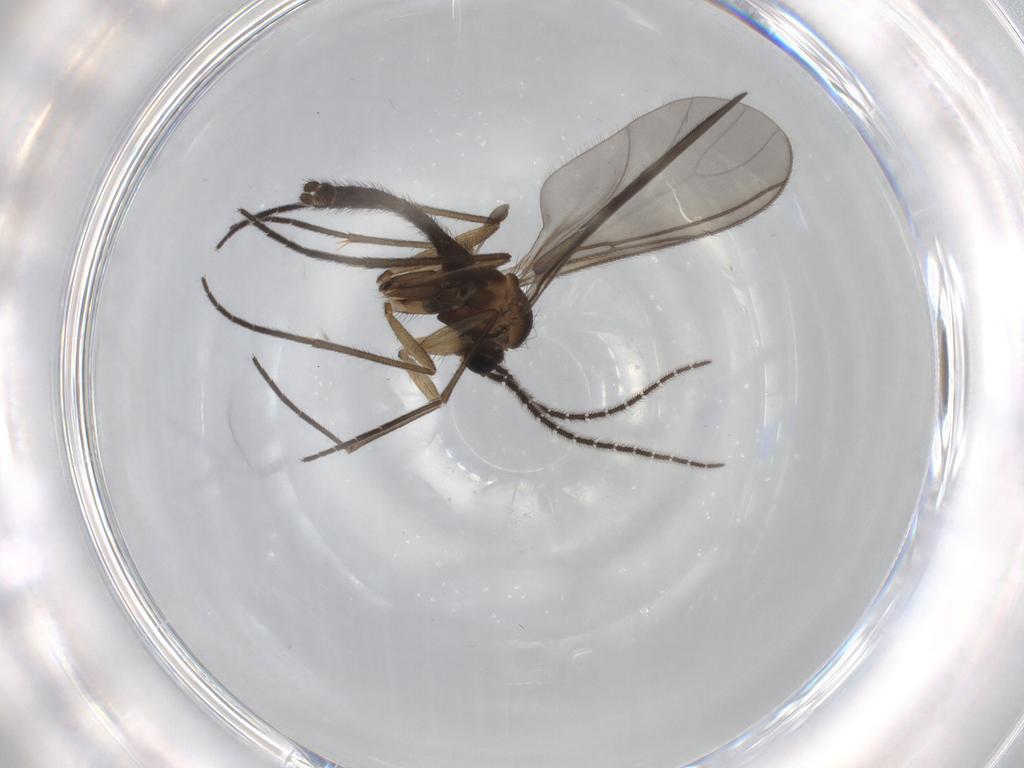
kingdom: Animalia
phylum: Arthropoda
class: Insecta
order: Diptera
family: Sciaridae
